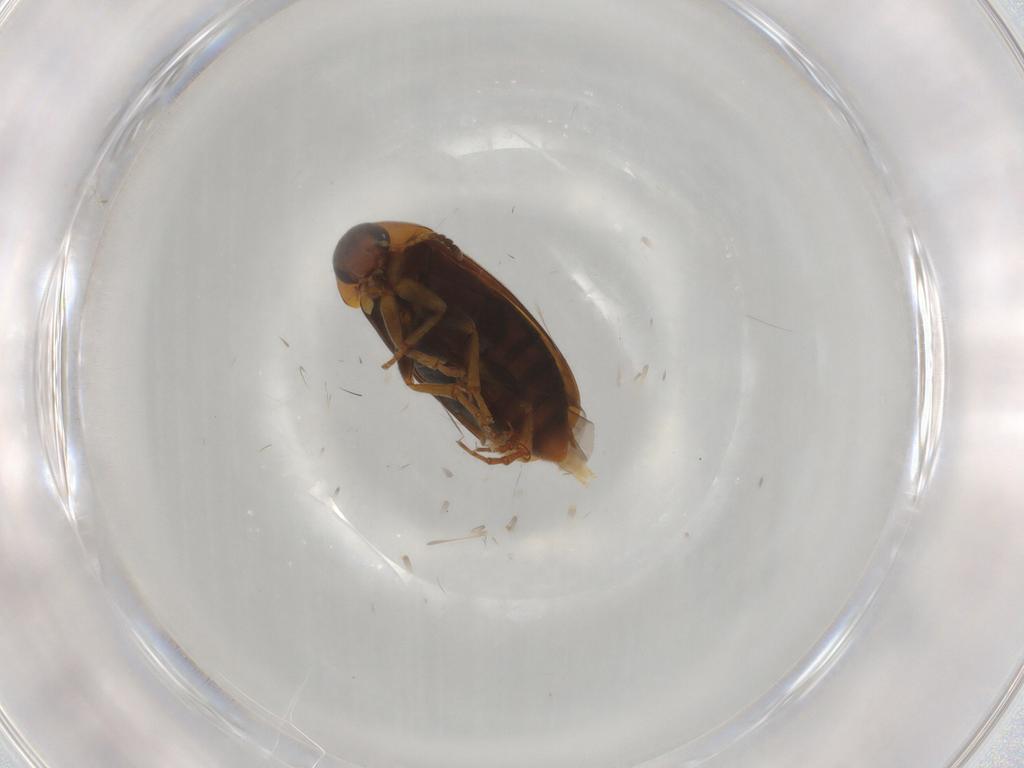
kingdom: Animalia
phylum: Arthropoda
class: Insecta
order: Coleoptera
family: Scraptiidae
